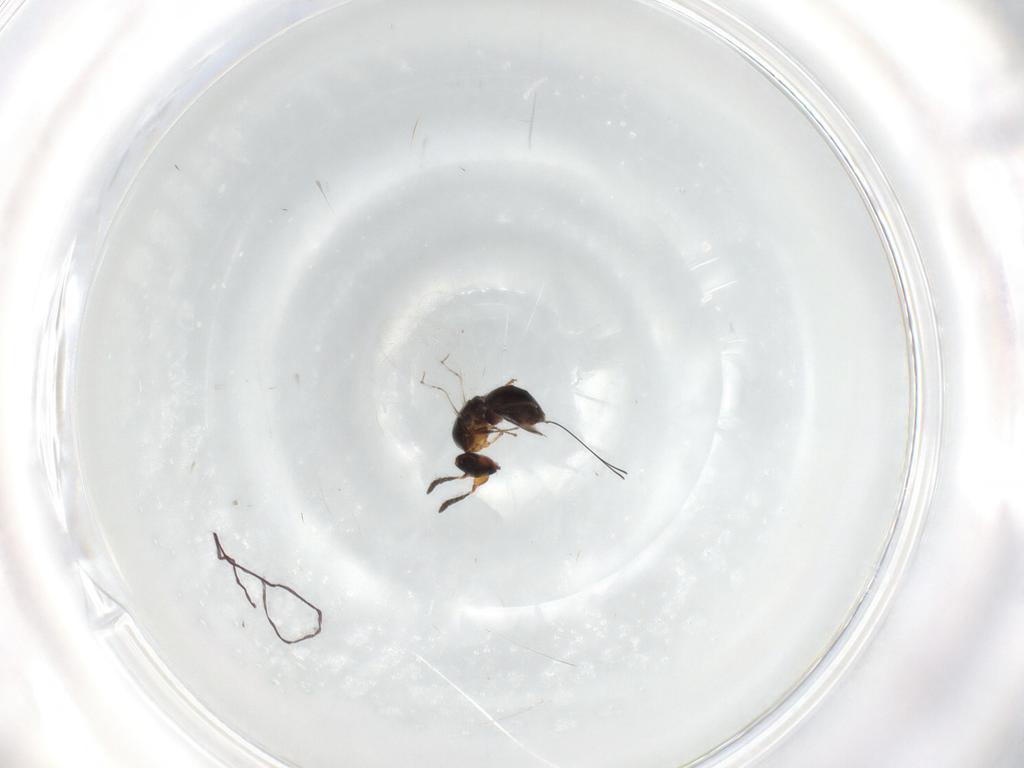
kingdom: Animalia
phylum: Arthropoda
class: Insecta
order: Hymenoptera
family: Agaonidae
